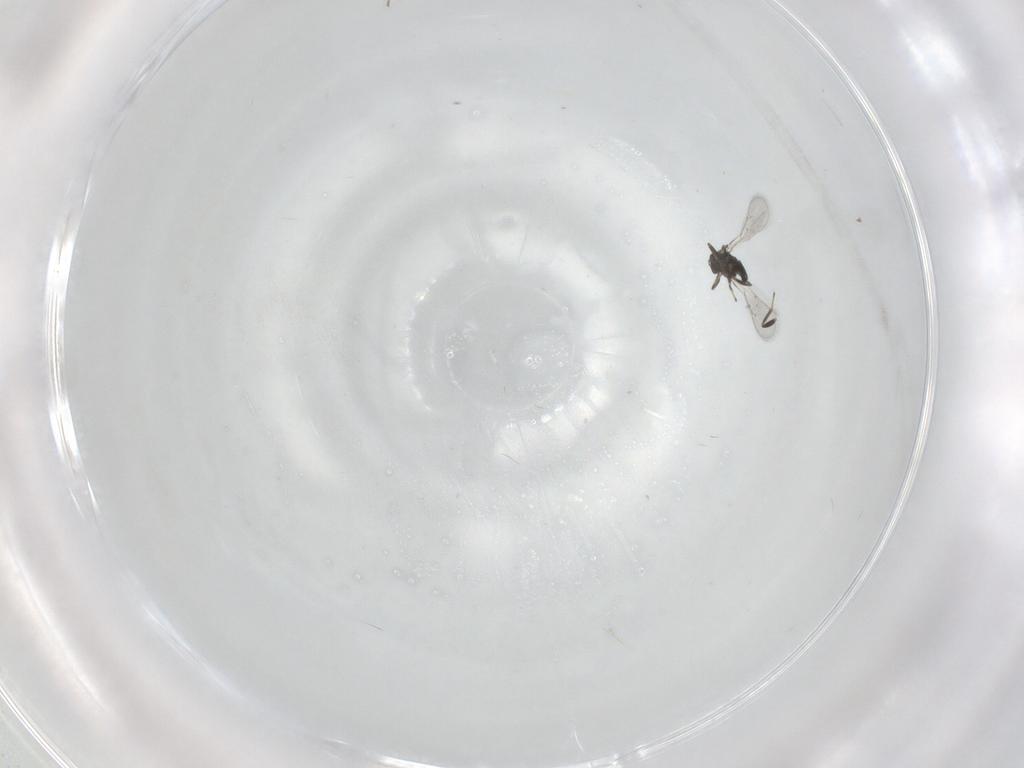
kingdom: Animalia
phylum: Arthropoda
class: Insecta
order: Hymenoptera
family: Eulophidae
